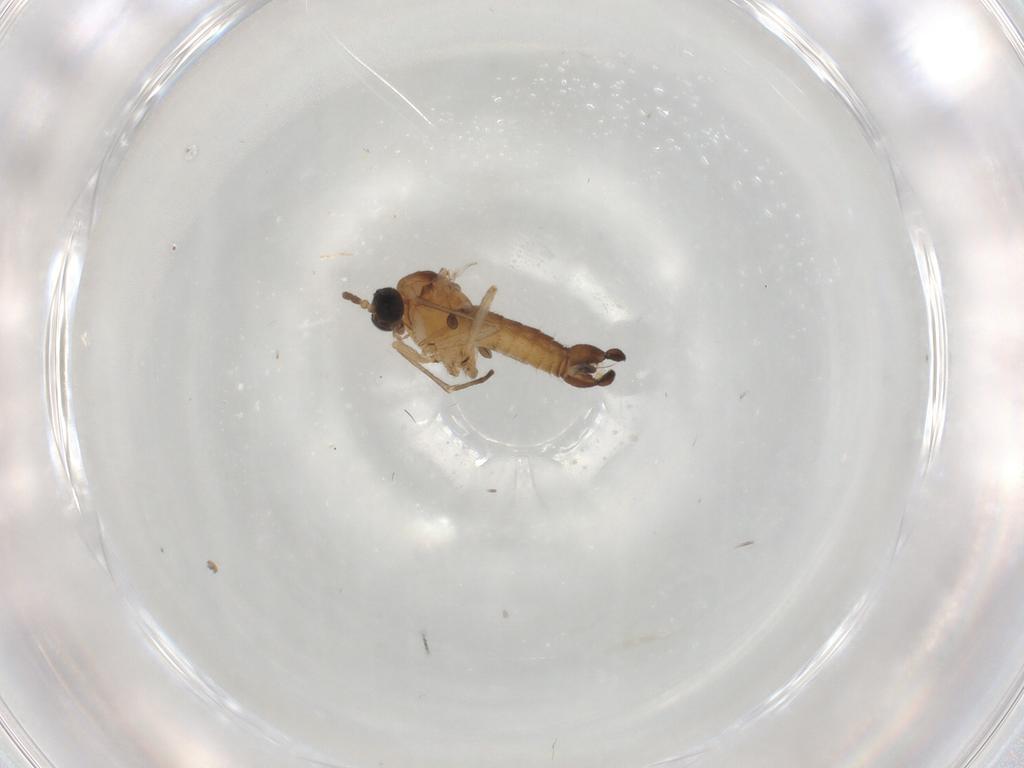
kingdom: Animalia
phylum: Arthropoda
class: Insecta
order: Diptera
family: Sciaridae
